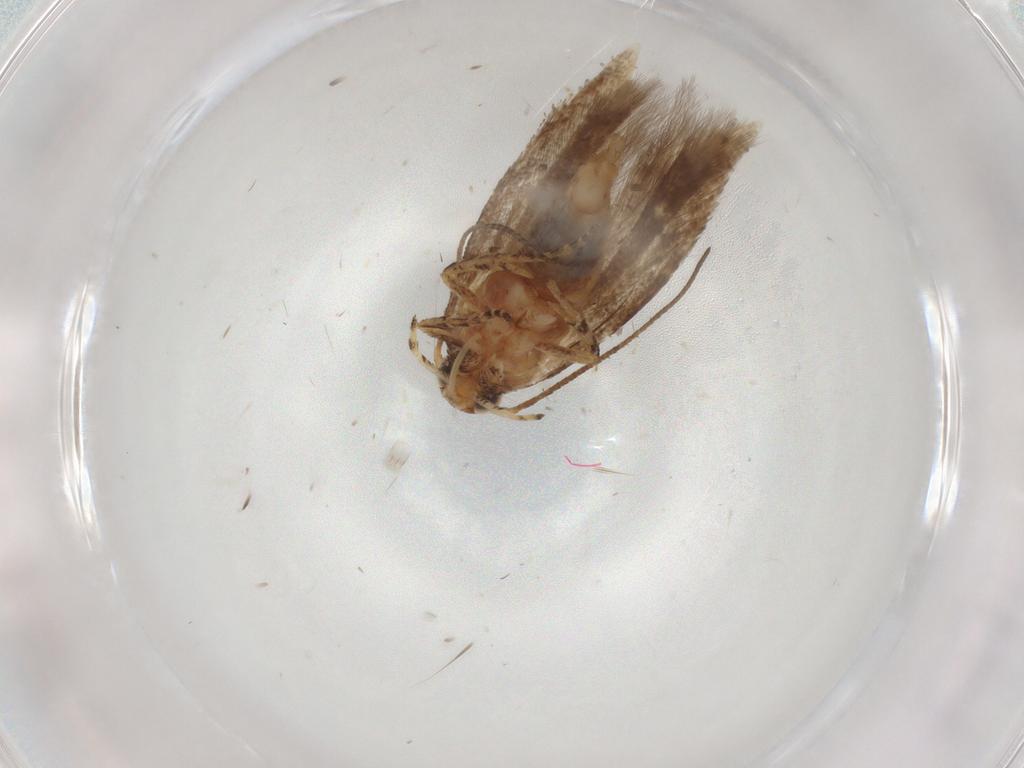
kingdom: Animalia
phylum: Arthropoda
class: Insecta
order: Lepidoptera
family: Gelechiidae
